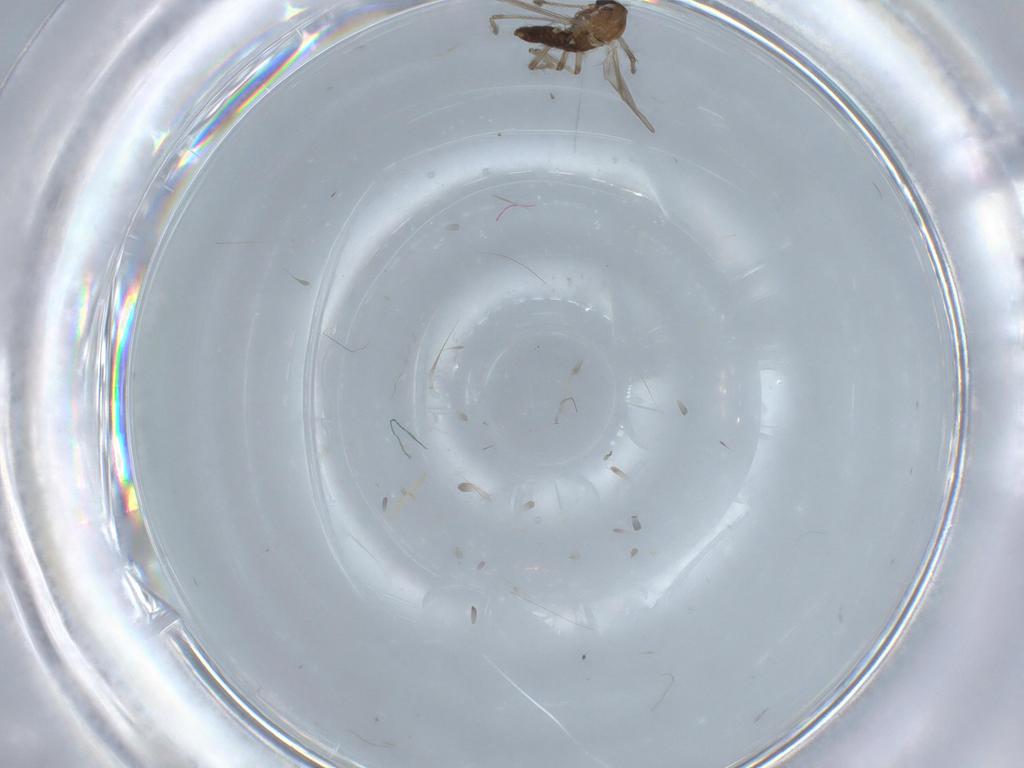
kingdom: Animalia
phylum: Arthropoda
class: Insecta
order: Diptera
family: Chironomidae
